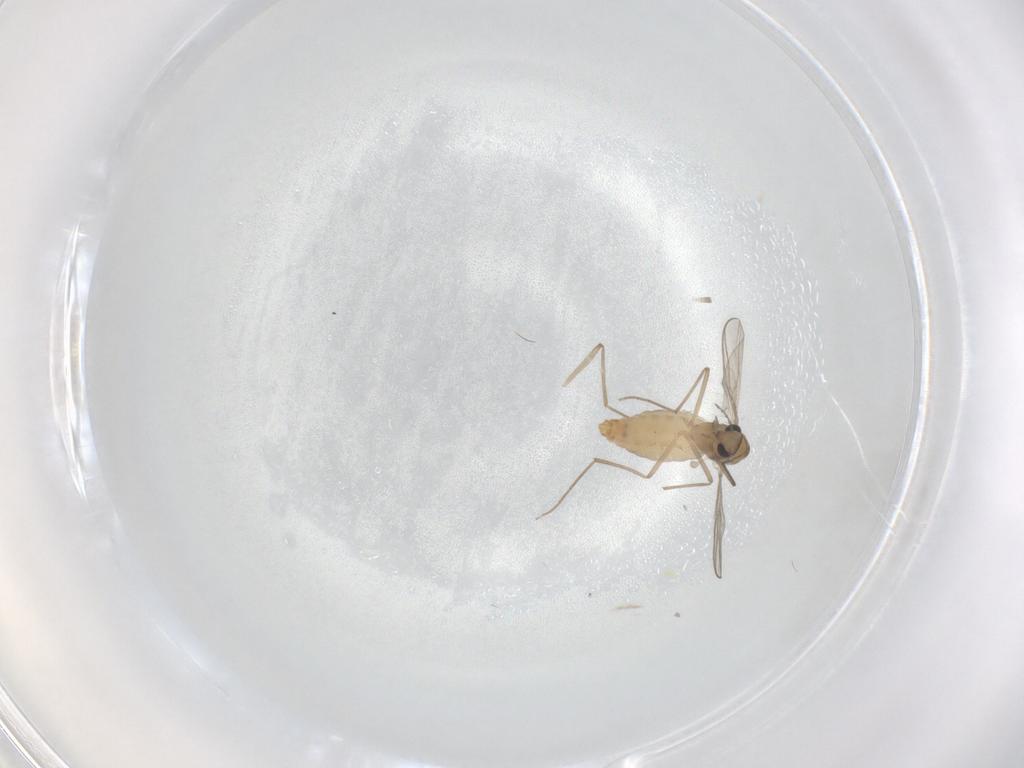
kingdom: Animalia
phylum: Arthropoda
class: Insecta
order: Diptera
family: Chironomidae
